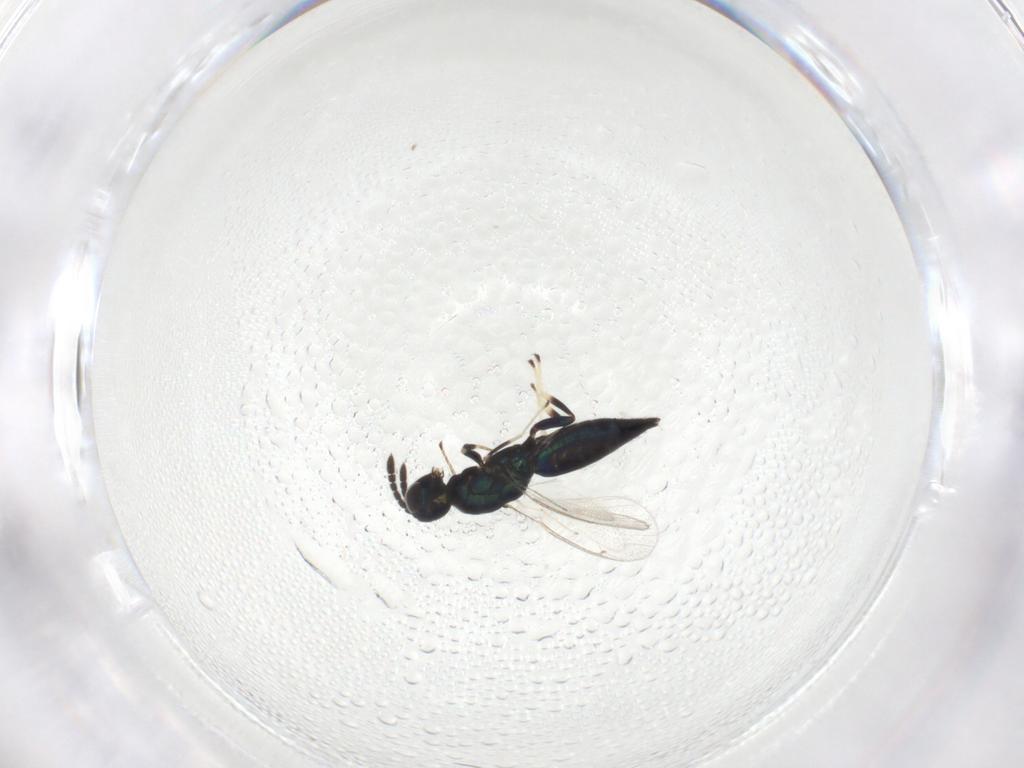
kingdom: Animalia
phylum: Arthropoda
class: Insecta
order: Hymenoptera
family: Eulophidae
